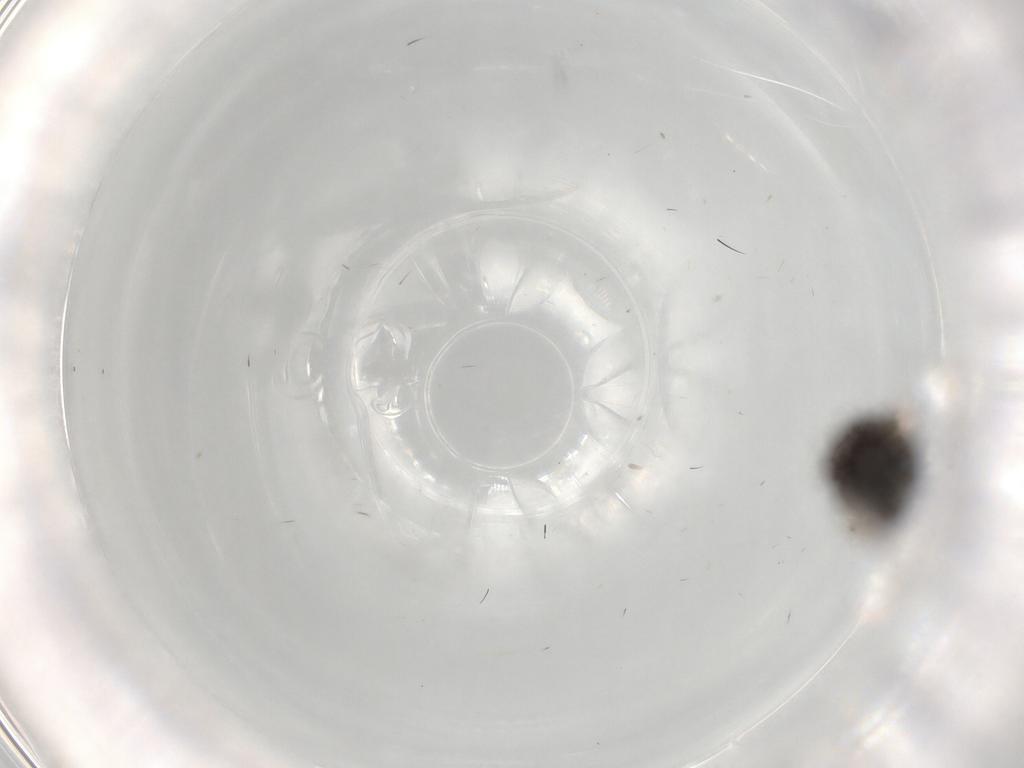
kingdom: Animalia
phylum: Arthropoda
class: Insecta
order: Diptera
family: Ceratopogonidae
